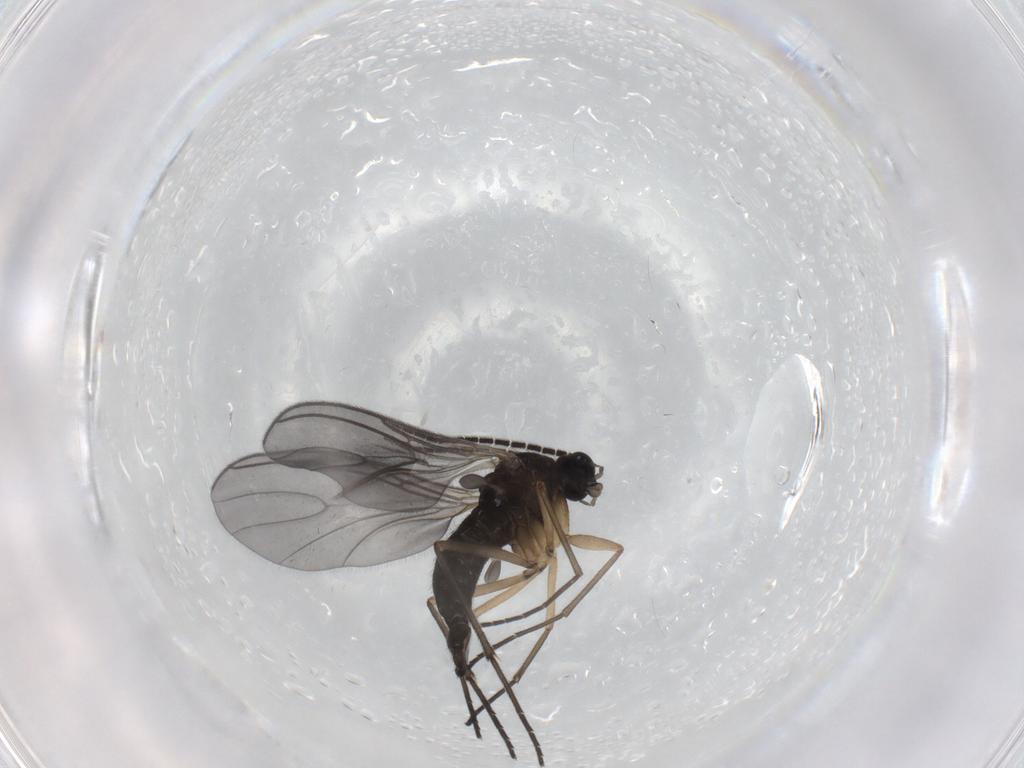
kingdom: Animalia
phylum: Arthropoda
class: Insecta
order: Diptera
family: Sciaridae
